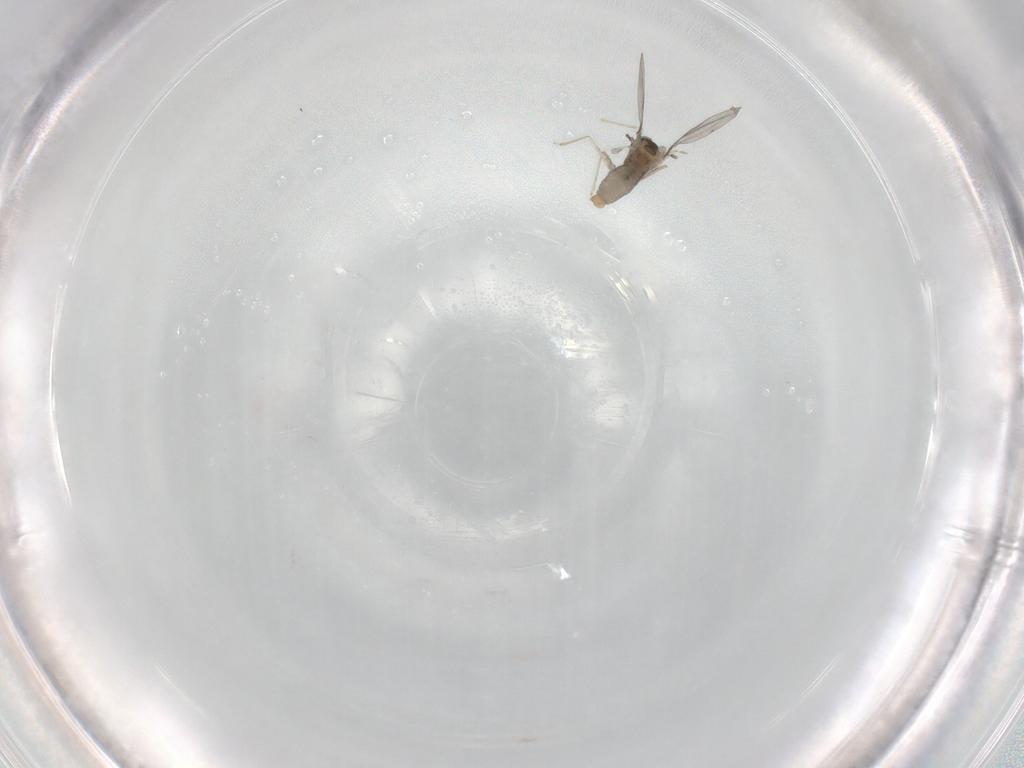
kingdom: Animalia
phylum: Arthropoda
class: Insecta
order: Diptera
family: Cecidomyiidae
